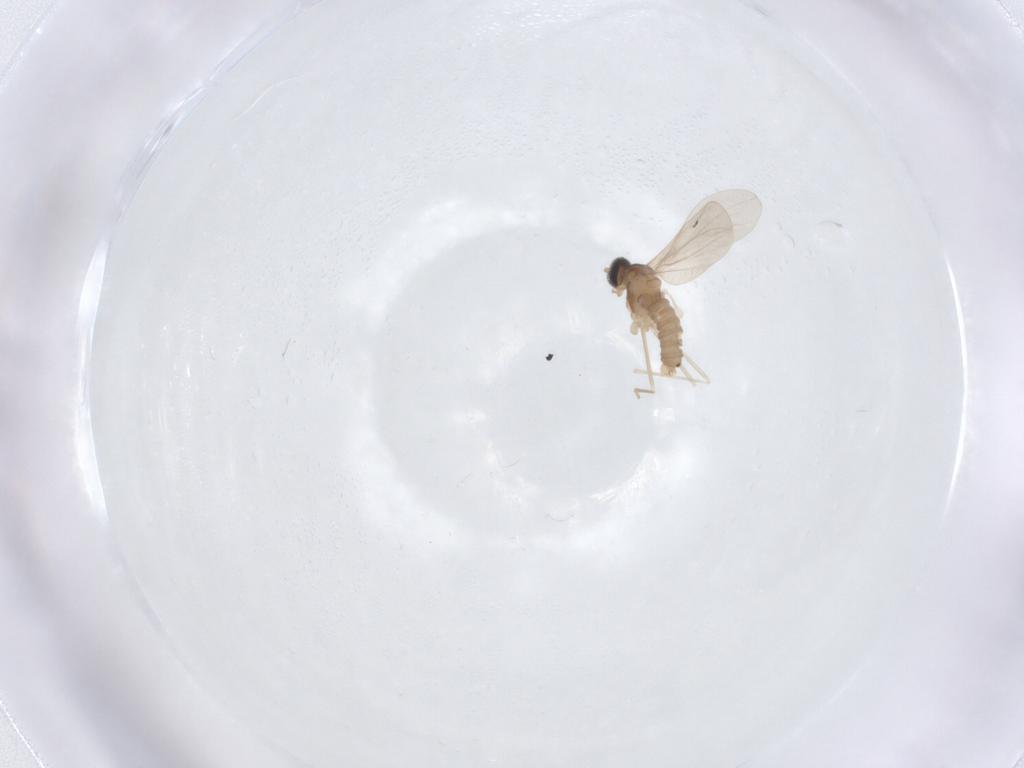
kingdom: Animalia
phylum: Arthropoda
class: Insecta
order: Diptera
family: Cecidomyiidae
